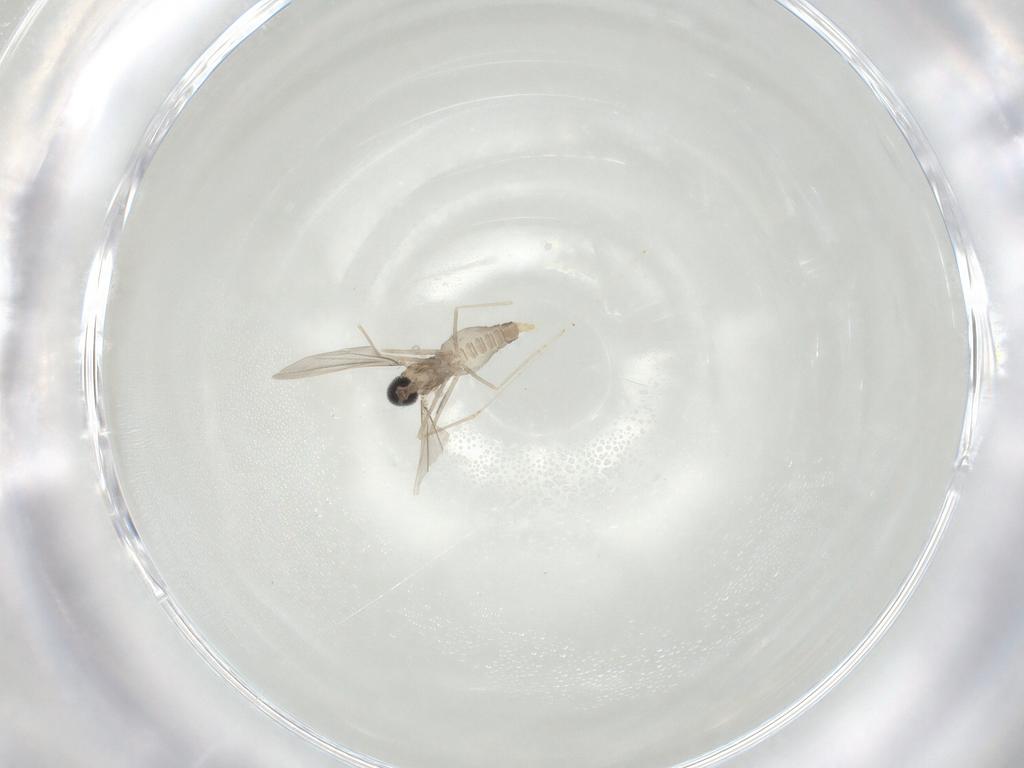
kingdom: Animalia
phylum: Arthropoda
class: Insecta
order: Diptera
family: Cecidomyiidae
